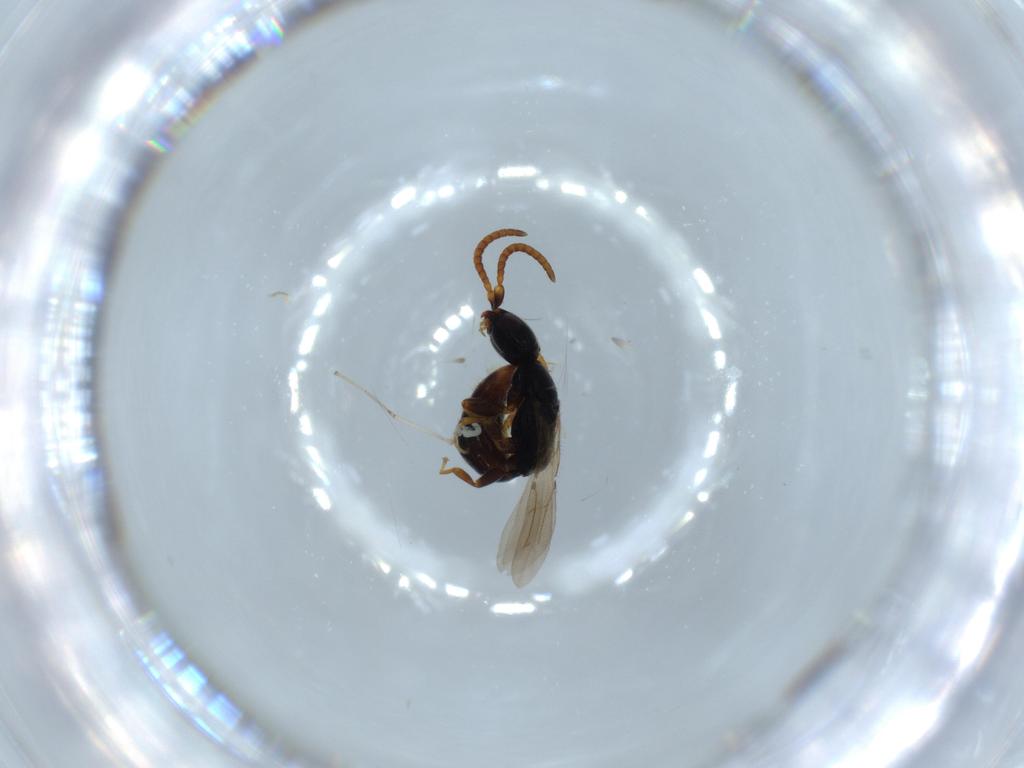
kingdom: Animalia
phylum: Arthropoda
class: Insecta
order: Hymenoptera
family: Bethylidae
